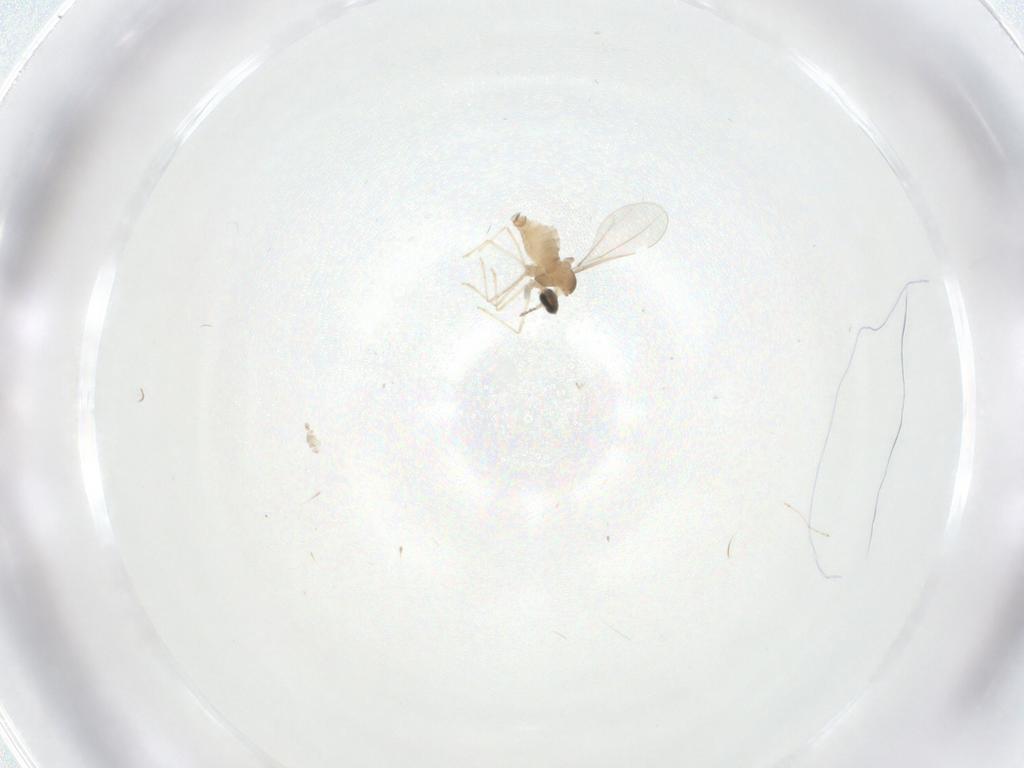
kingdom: Animalia
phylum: Arthropoda
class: Insecta
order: Diptera
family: Cecidomyiidae
